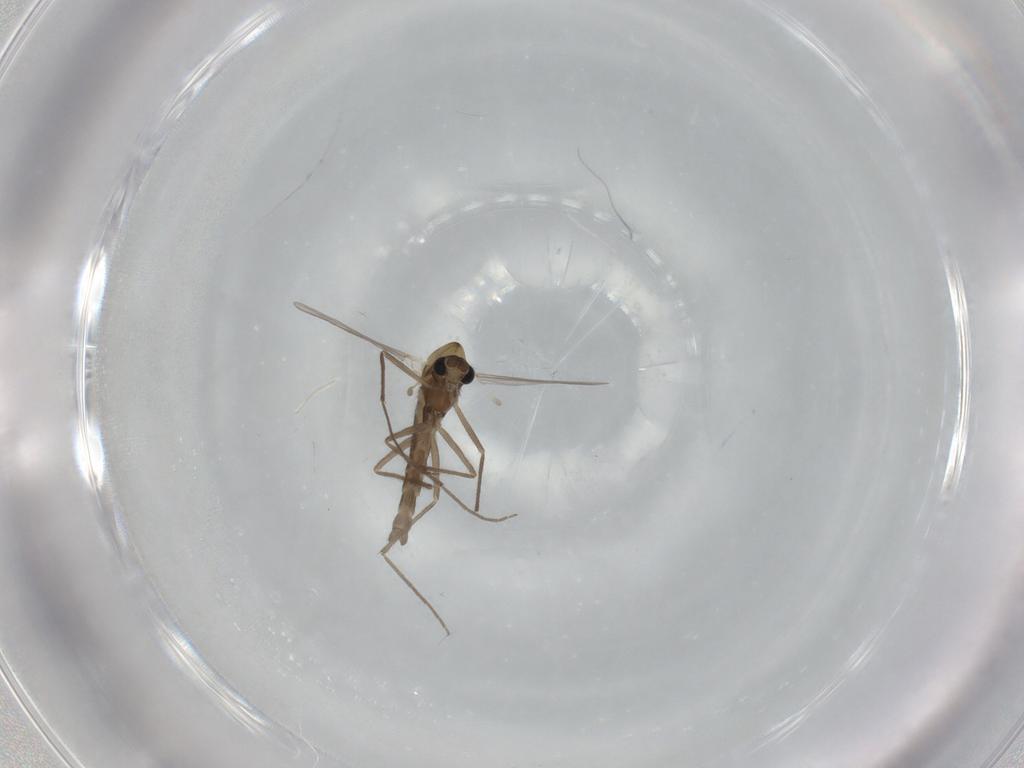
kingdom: Animalia
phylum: Arthropoda
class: Insecta
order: Diptera
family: Chironomidae
